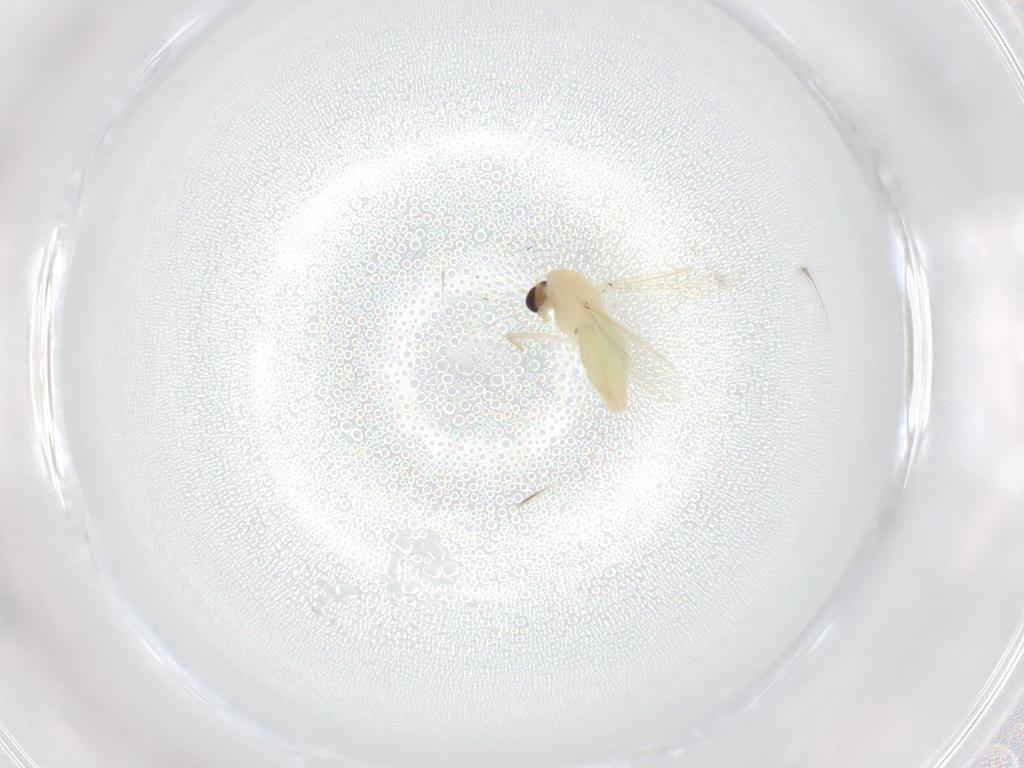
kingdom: Animalia
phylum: Arthropoda
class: Insecta
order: Diptera
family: Chironomidae
